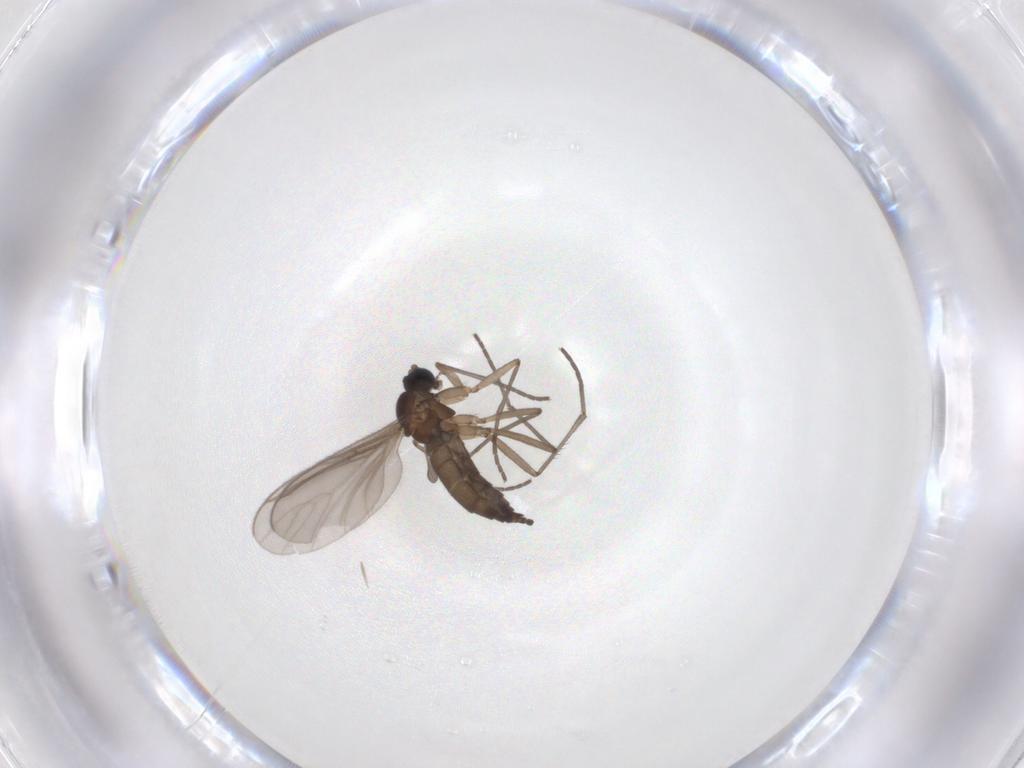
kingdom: Animalia
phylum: Arthropoda
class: Insecta
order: Diptera
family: Sciaridae
